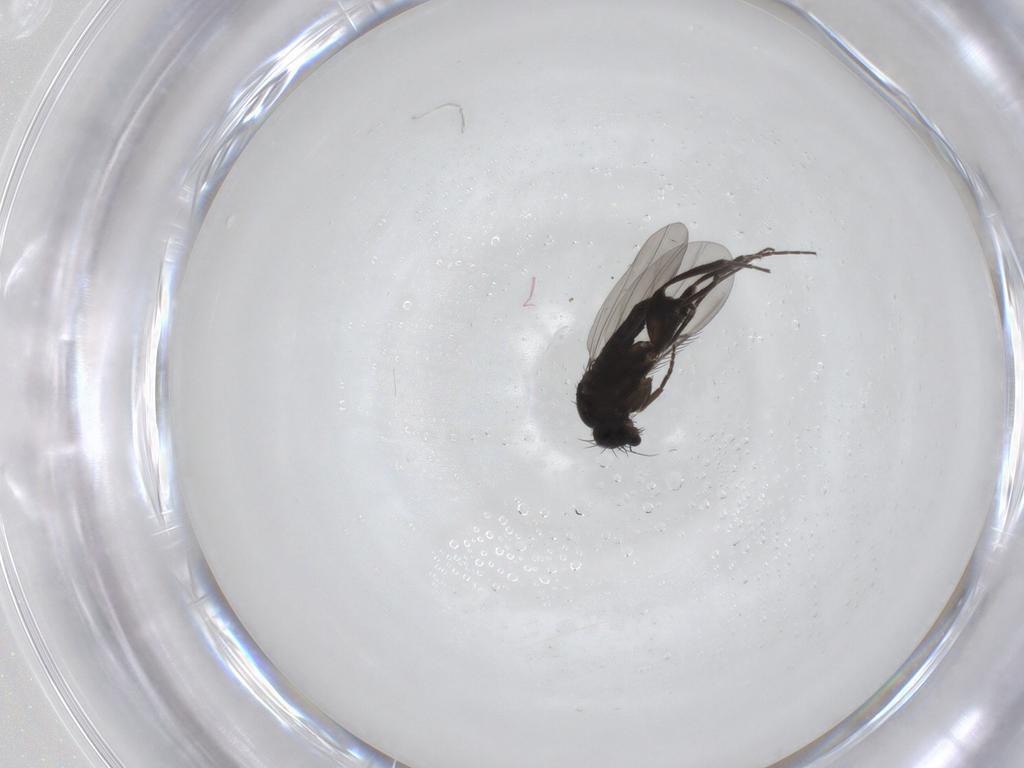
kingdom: Animalia
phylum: Arthropoda
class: Insecta
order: Diptera
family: Phoridae
